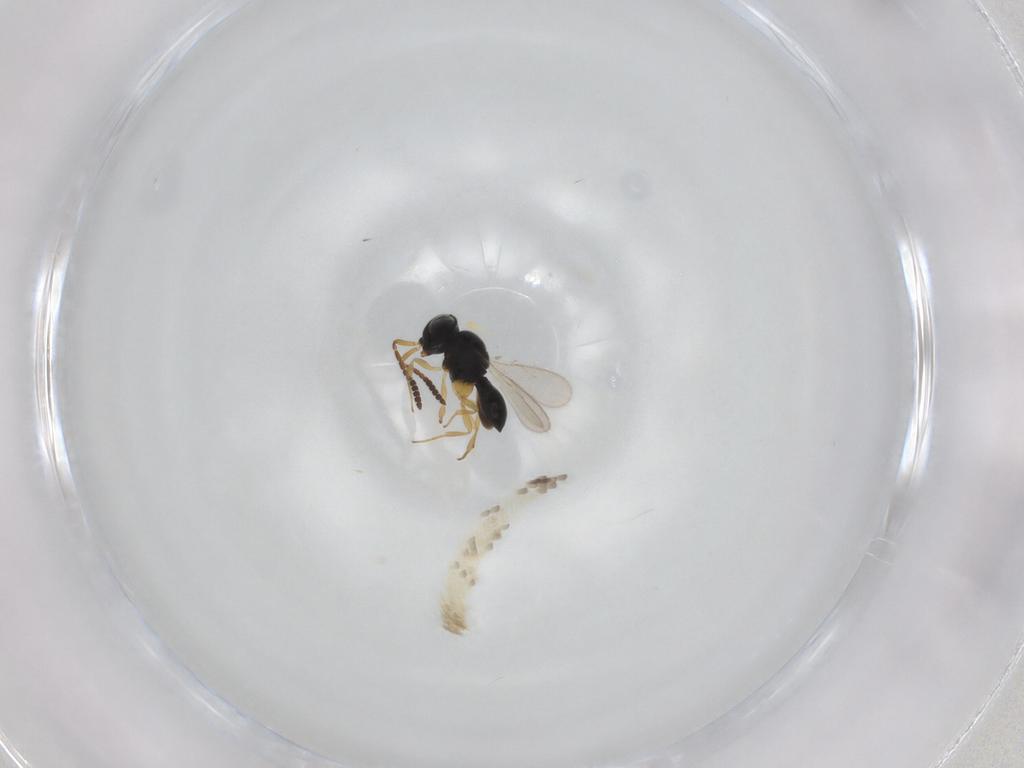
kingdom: Animalia
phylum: Arthropoda
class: Insecta
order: Hymenoptera
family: Scelionidae
